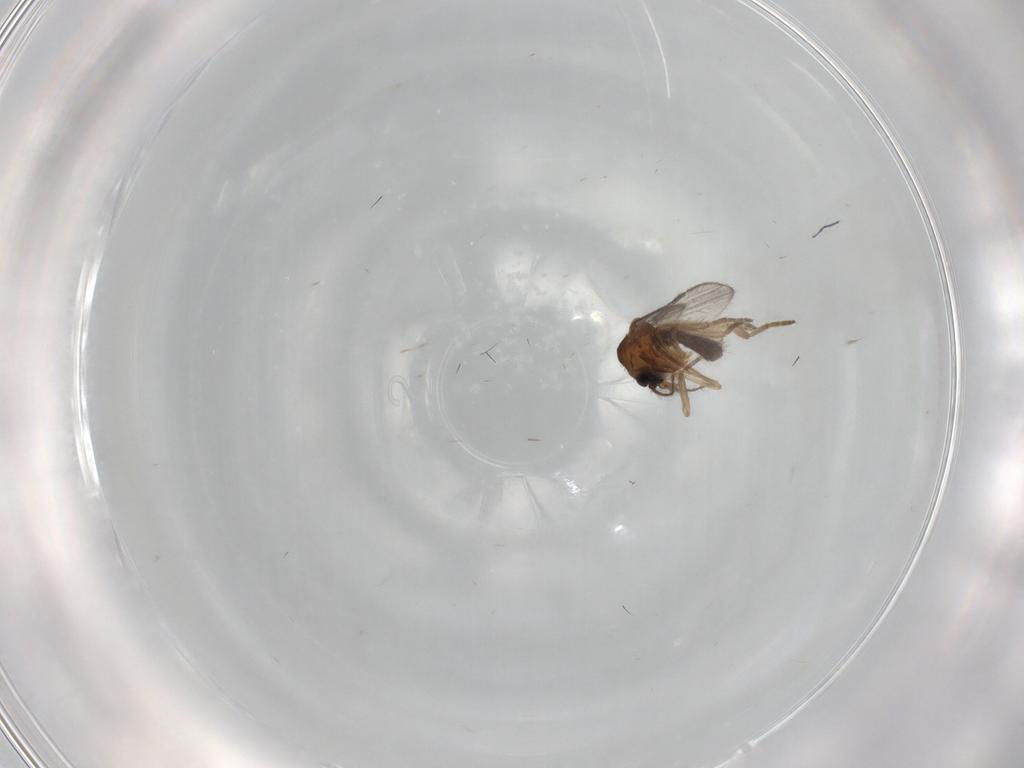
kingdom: Animalia
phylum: Arthropoda
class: Insecta
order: Diptera
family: Ceratopogonidae
